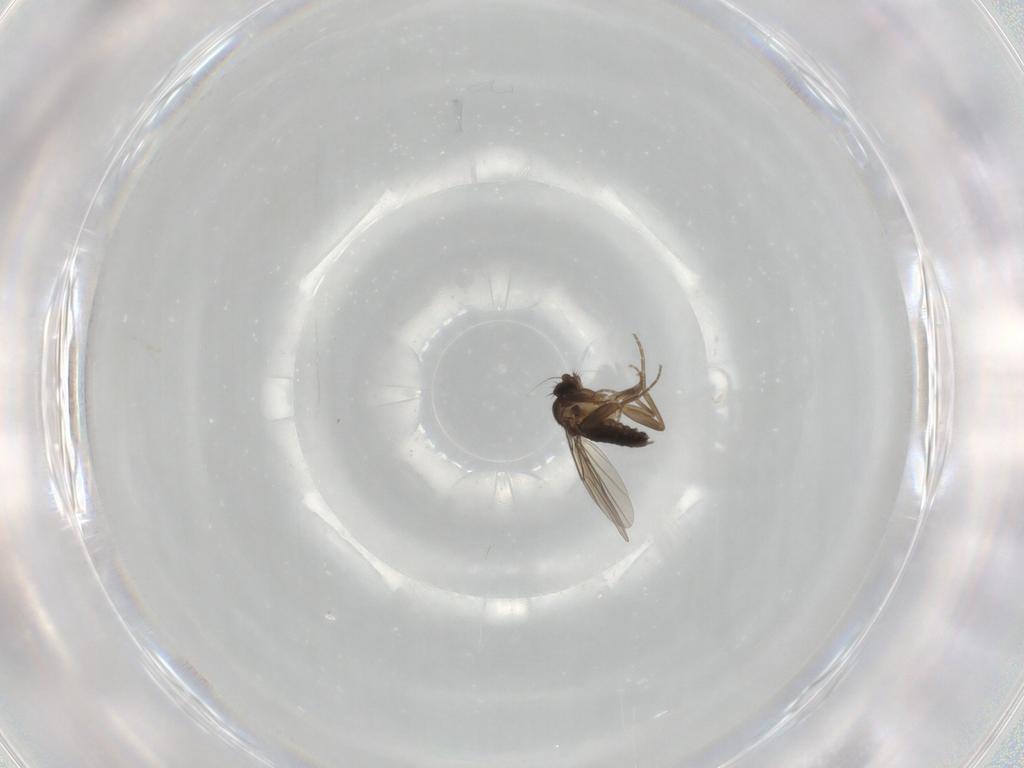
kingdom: Animalia
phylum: Arthropoda
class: Insecta
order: Diptera
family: Phoridae
